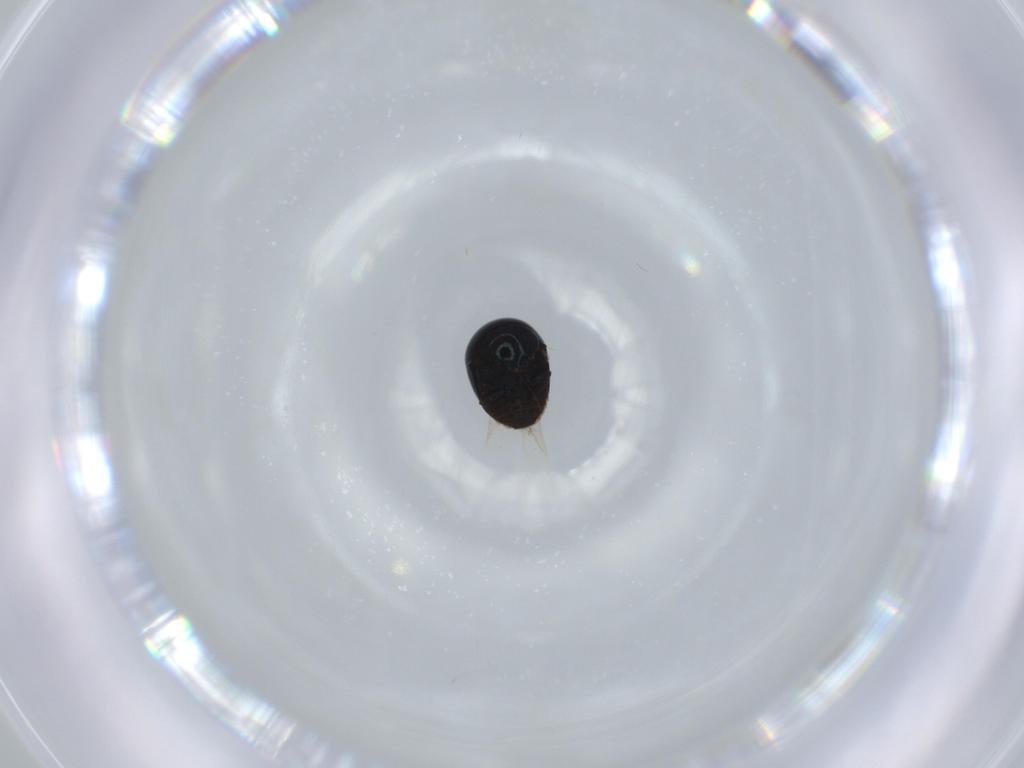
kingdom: Animalia
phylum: Arthropoda
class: Insecta
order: Coleoptera
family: Cybocephalidae
